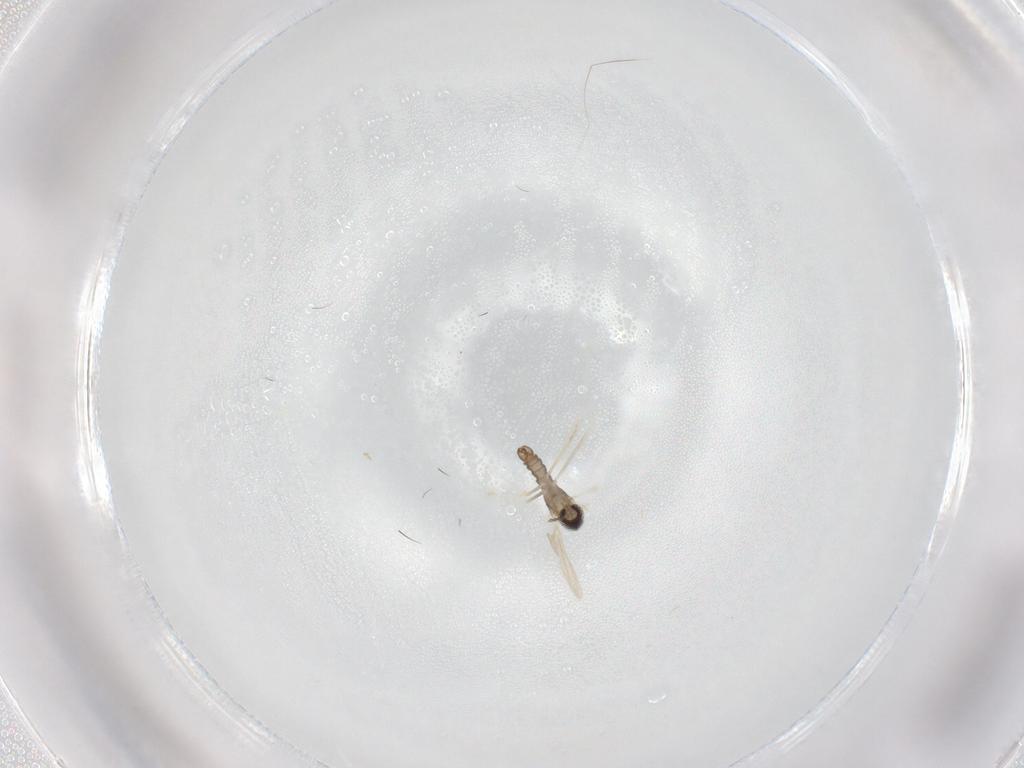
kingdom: Animalia
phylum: Arthropoda
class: Insecta
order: Diptera
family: Cecidomyiidae
